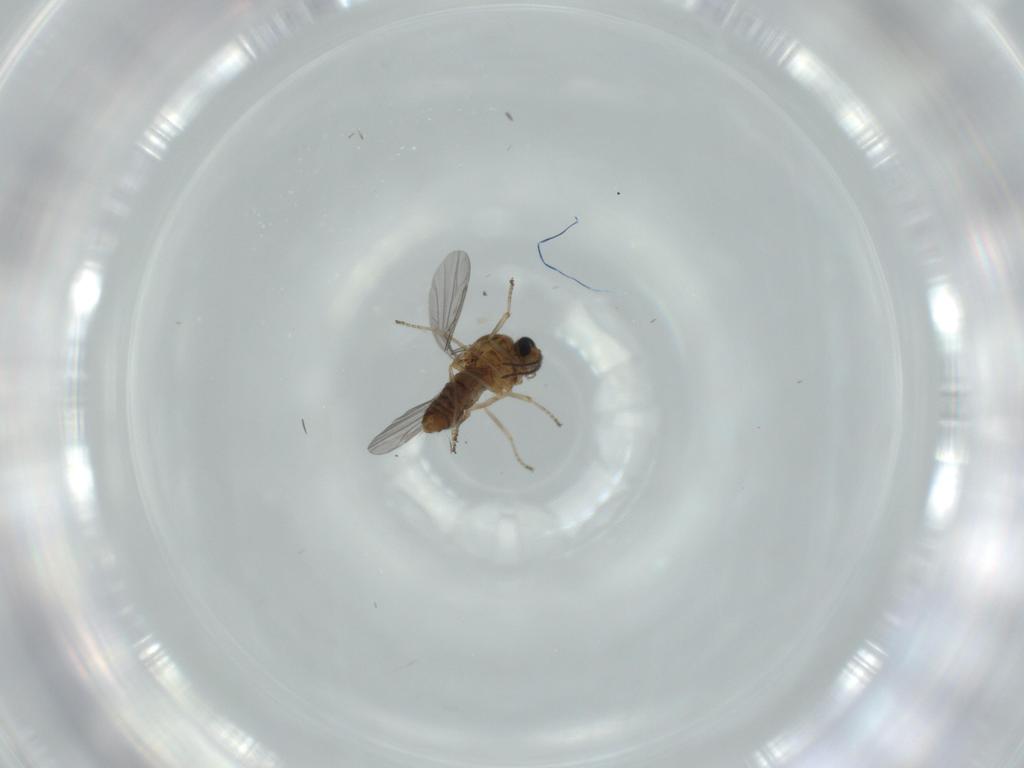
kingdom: Animalia
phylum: Arthropoda
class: Insecta
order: Diptera
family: Ceratopogonidae
